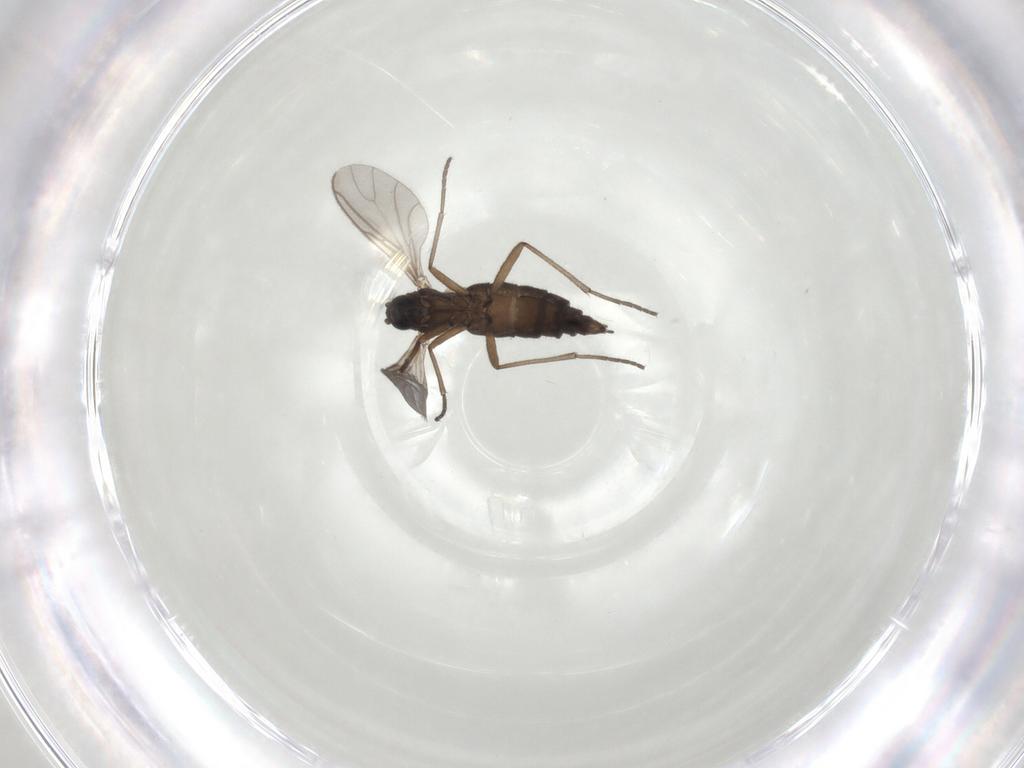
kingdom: Animalia
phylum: Arthropoda
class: Insecta
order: Diptera
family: Sciaridae
